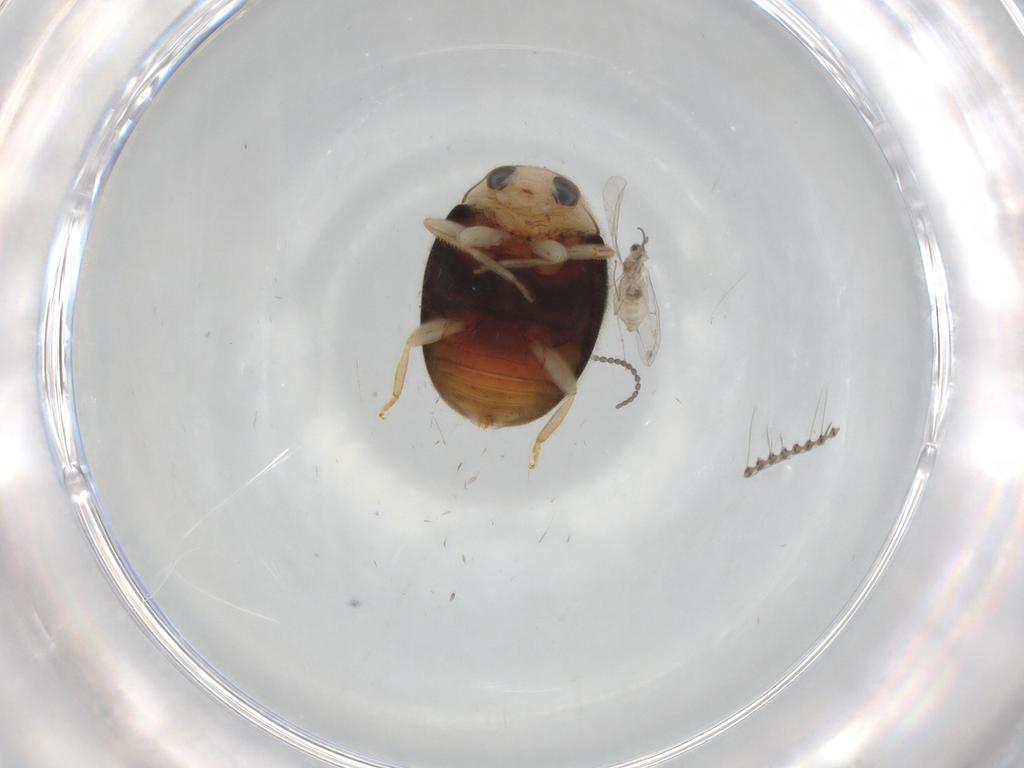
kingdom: Animalia
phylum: Arthropoda
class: Insecta
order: Diptera
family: Cecidomyiidae
